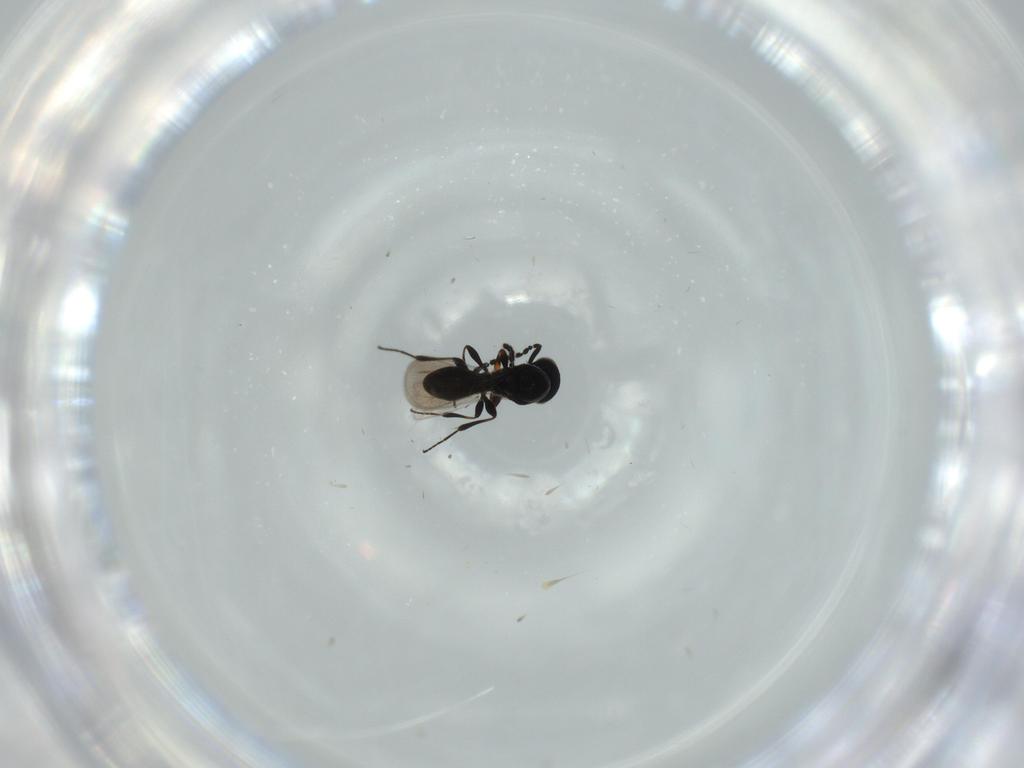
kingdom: Animalia
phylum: Arthropoda
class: Insecta
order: Hymenoptera
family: Platygastridae
